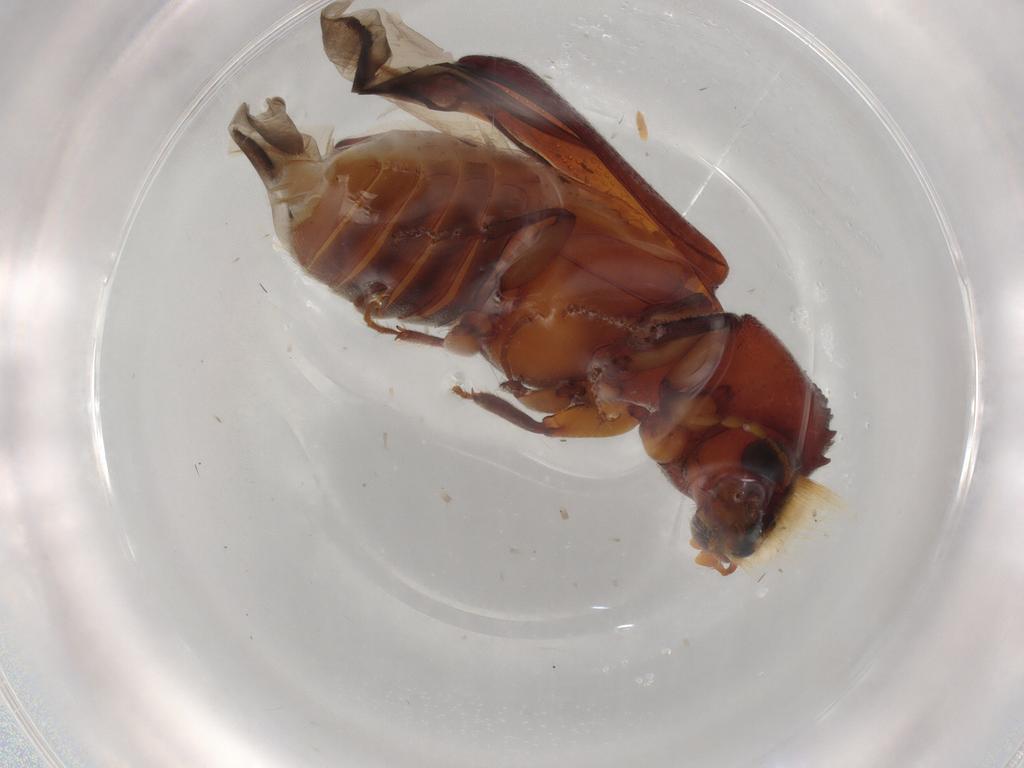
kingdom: Animalia
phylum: Arthropoda
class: Insecta
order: Coleoptera
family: Bostrichidae
